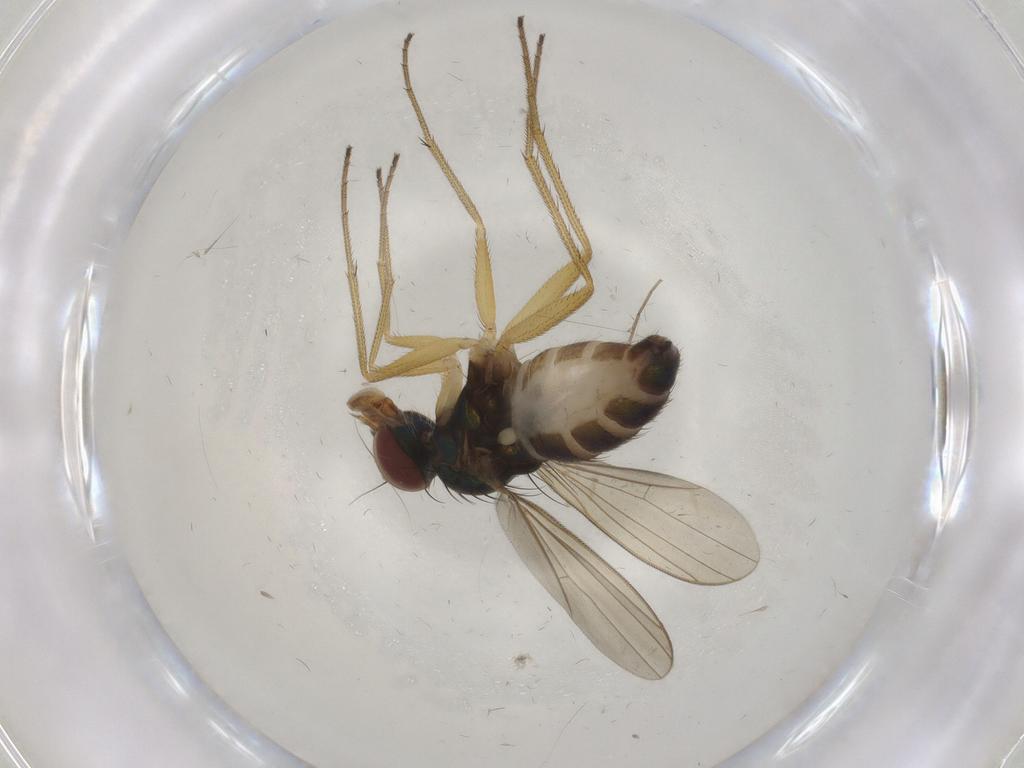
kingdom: Animalia
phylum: Arthropoda
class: Insecta
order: Diptera
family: Dolichopodidae
